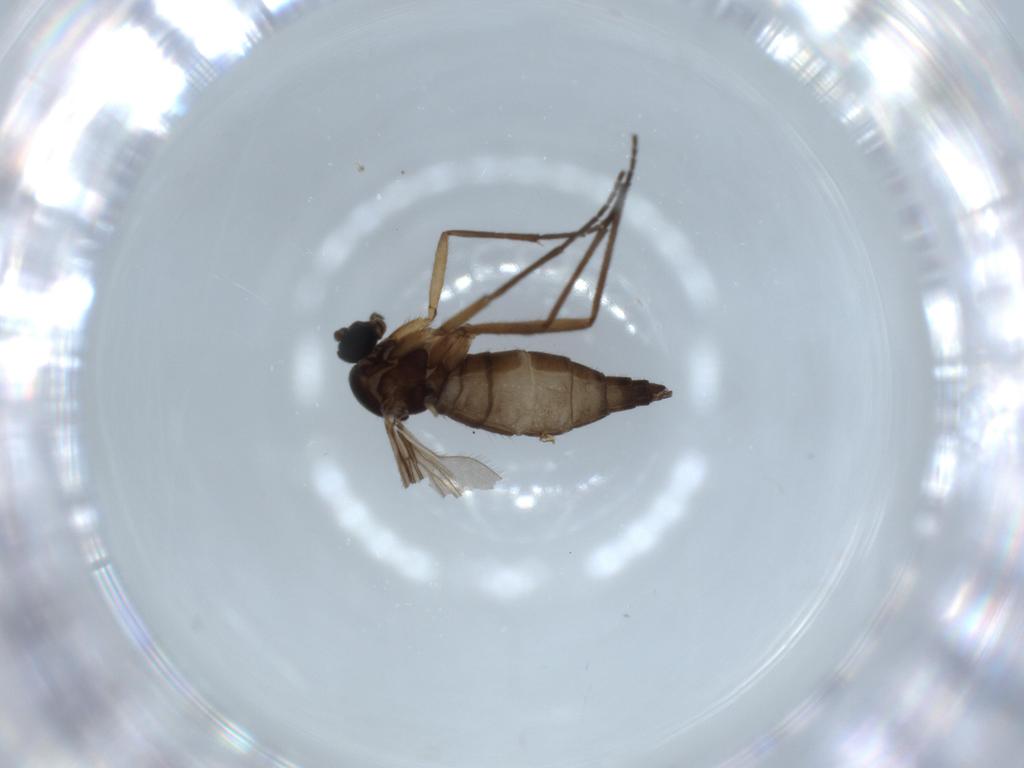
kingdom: Animalia
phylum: Arthropoda
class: Insecta
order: Diptera
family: Sciaridae
